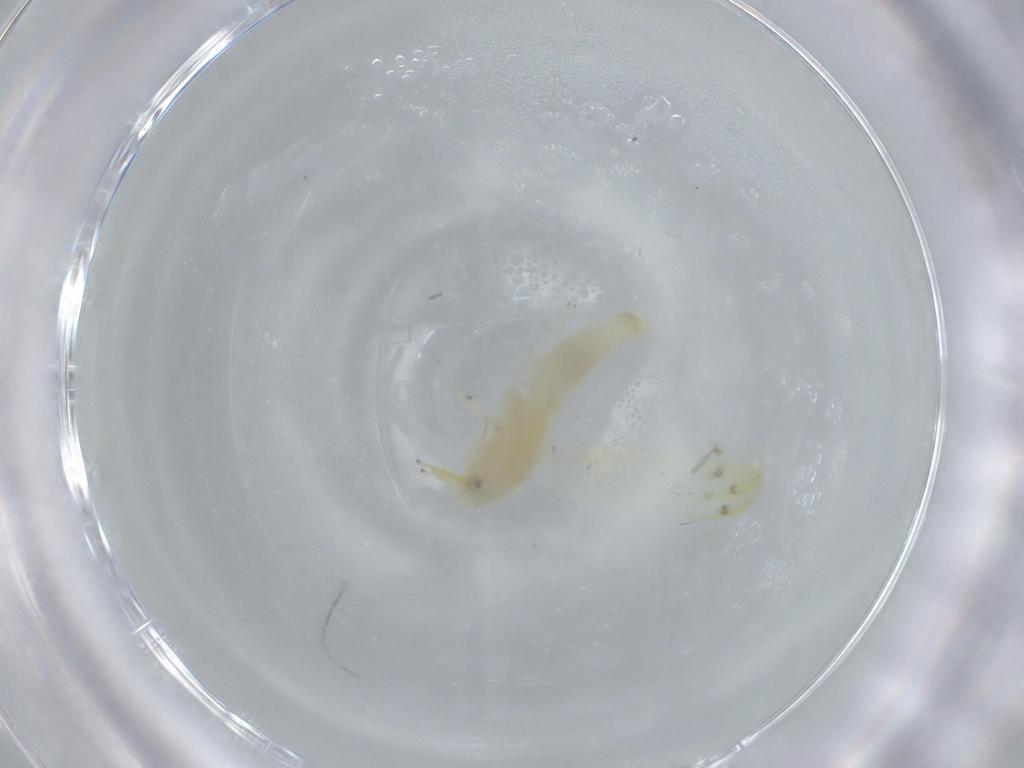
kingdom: Animalia
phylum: Arthropoda
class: Insecta
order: Hemiptera
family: Cicadellidae
